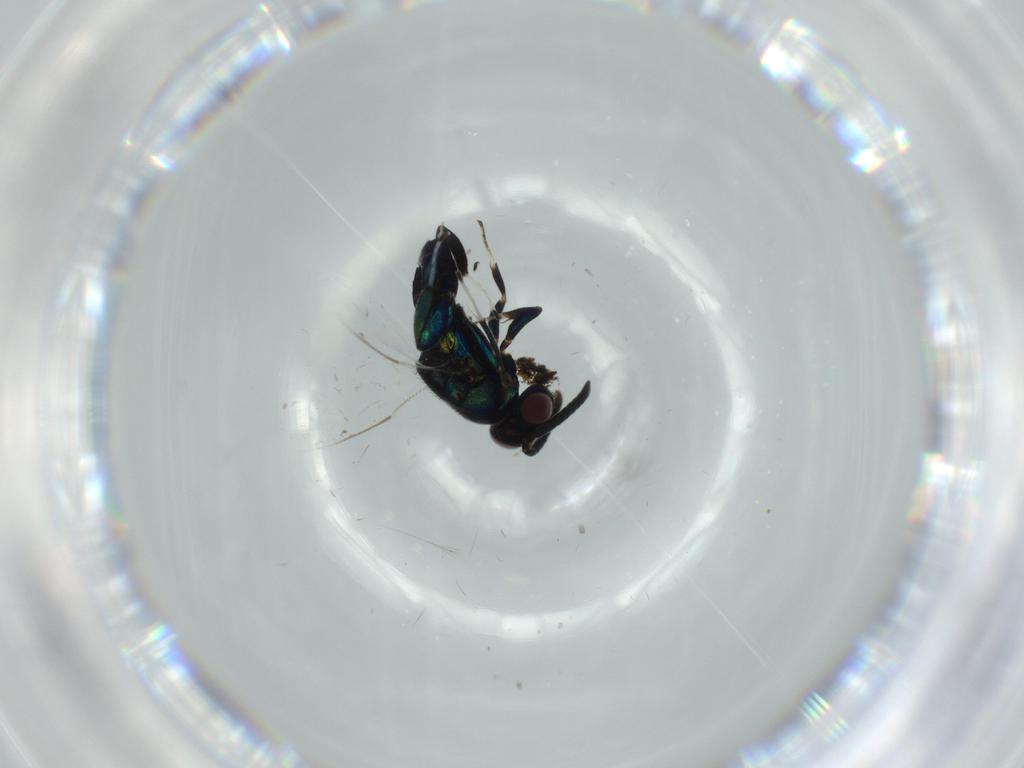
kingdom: Animalia
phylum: Arthropoda
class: Insecta
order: Hymenoptera
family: Eupelmidae
